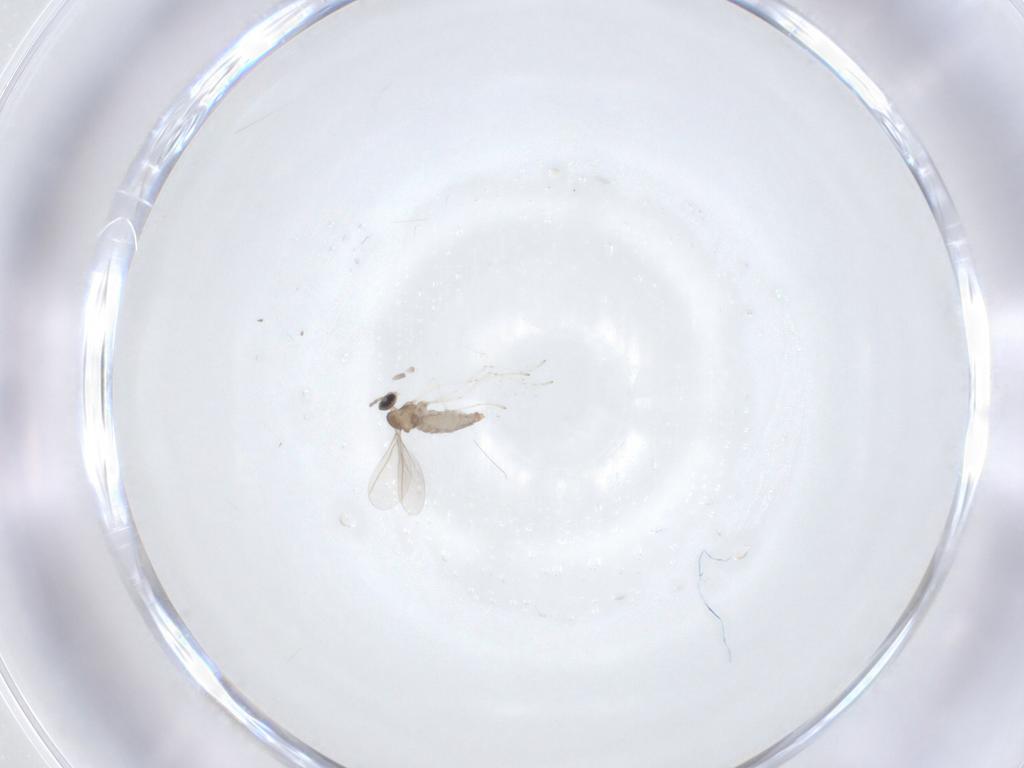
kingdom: Animalia
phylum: Arthropoda
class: Insecta
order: Diptera
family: Cecidomyiidae
